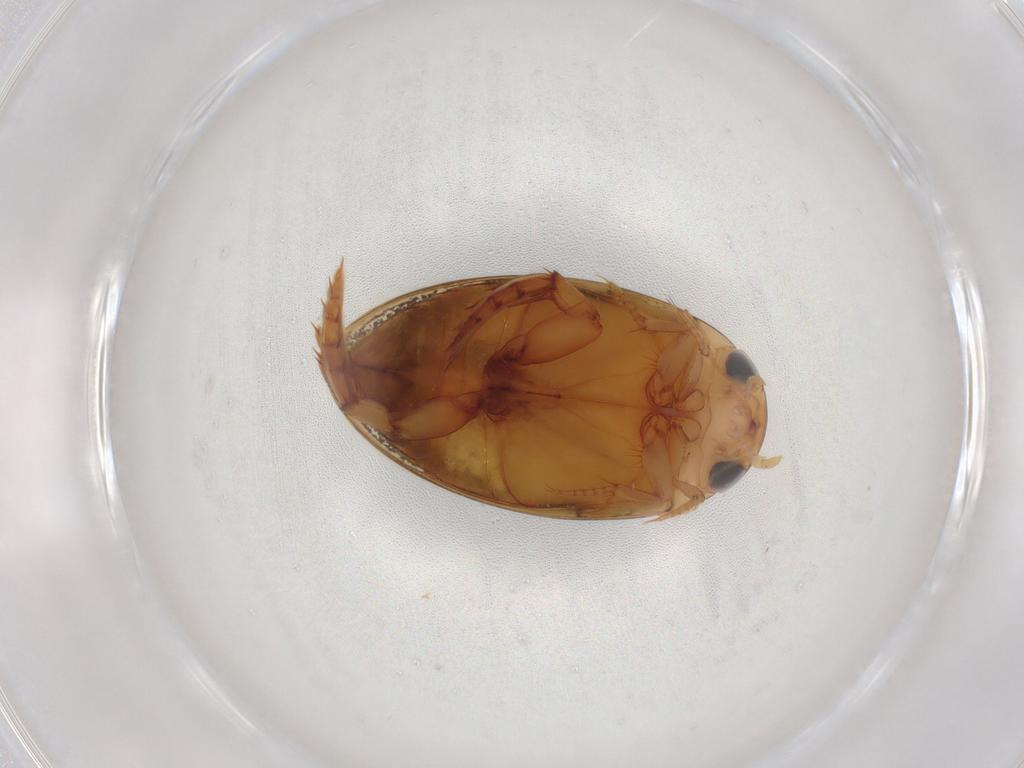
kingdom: Animalia
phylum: Arthropoda
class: Insecta
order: Coleoptera
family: Dytiscidae
